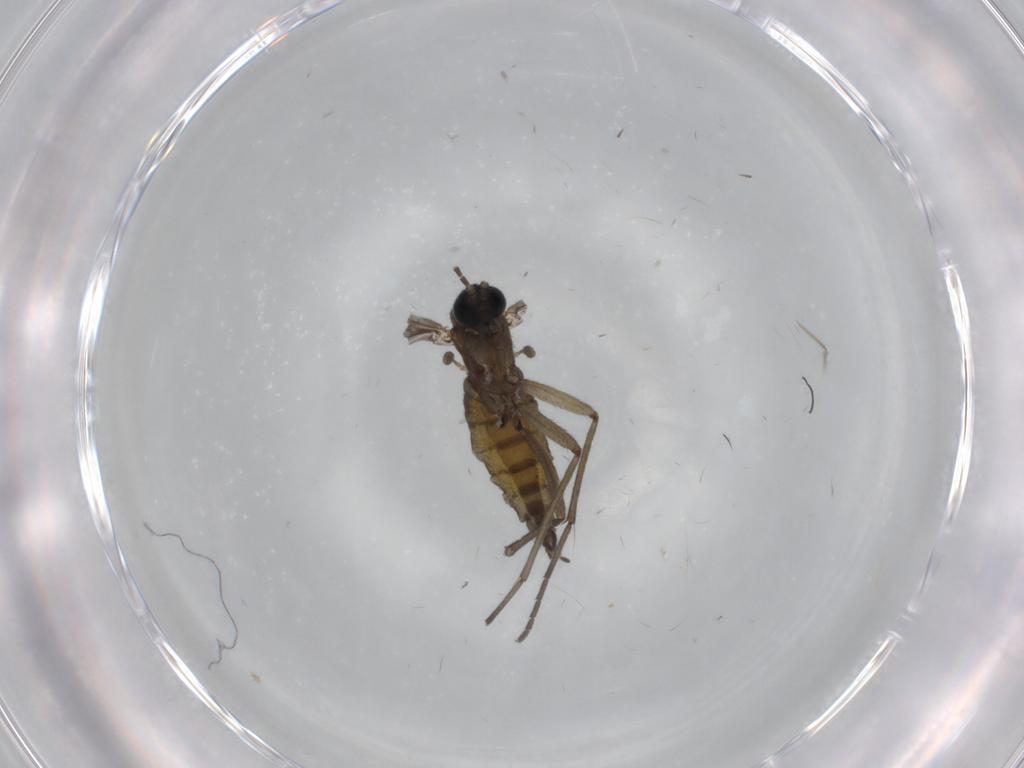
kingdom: Animalia
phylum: Arthropoda
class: Insecta
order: Diptera
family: Sciaridae
